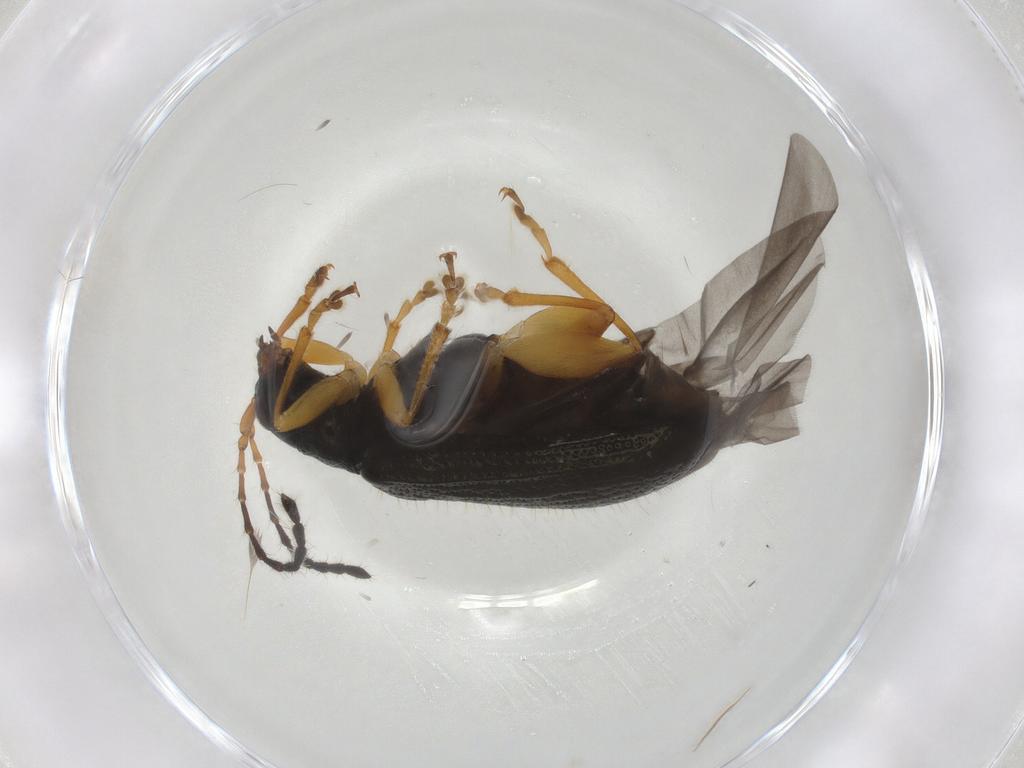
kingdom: Animalia
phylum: Arthropoda
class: Insecta
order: Coleoptera
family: Chrysomelidae
